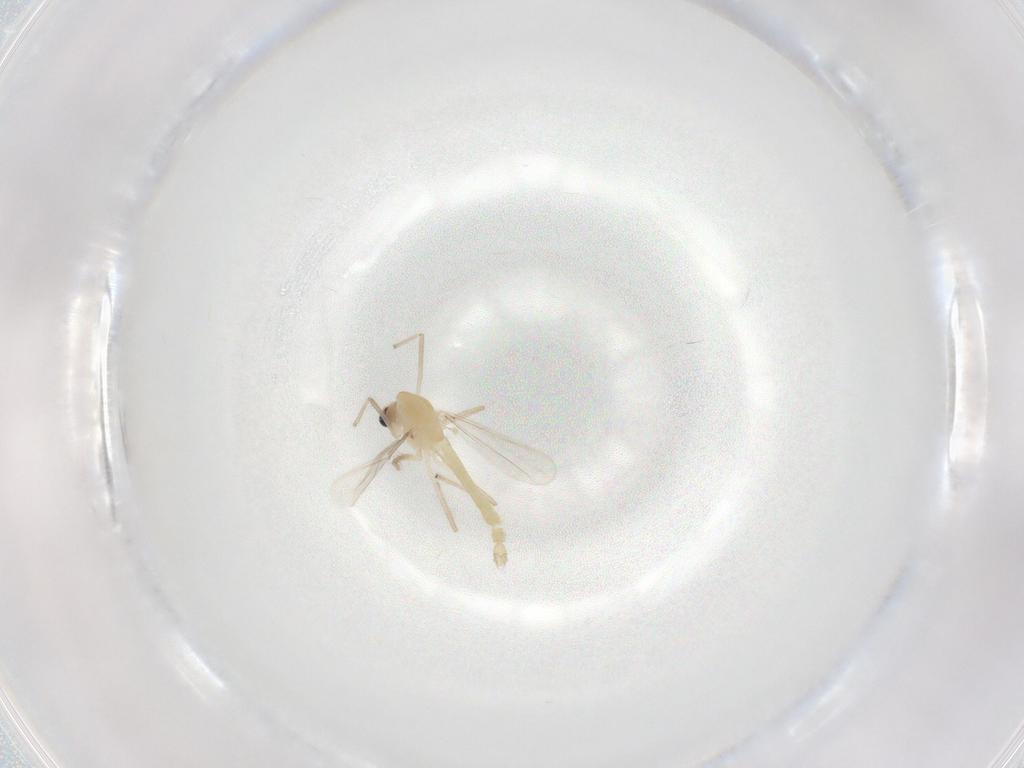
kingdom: Animalia
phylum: Arthropoda
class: Insecta
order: Diptera
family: Chironomidae
